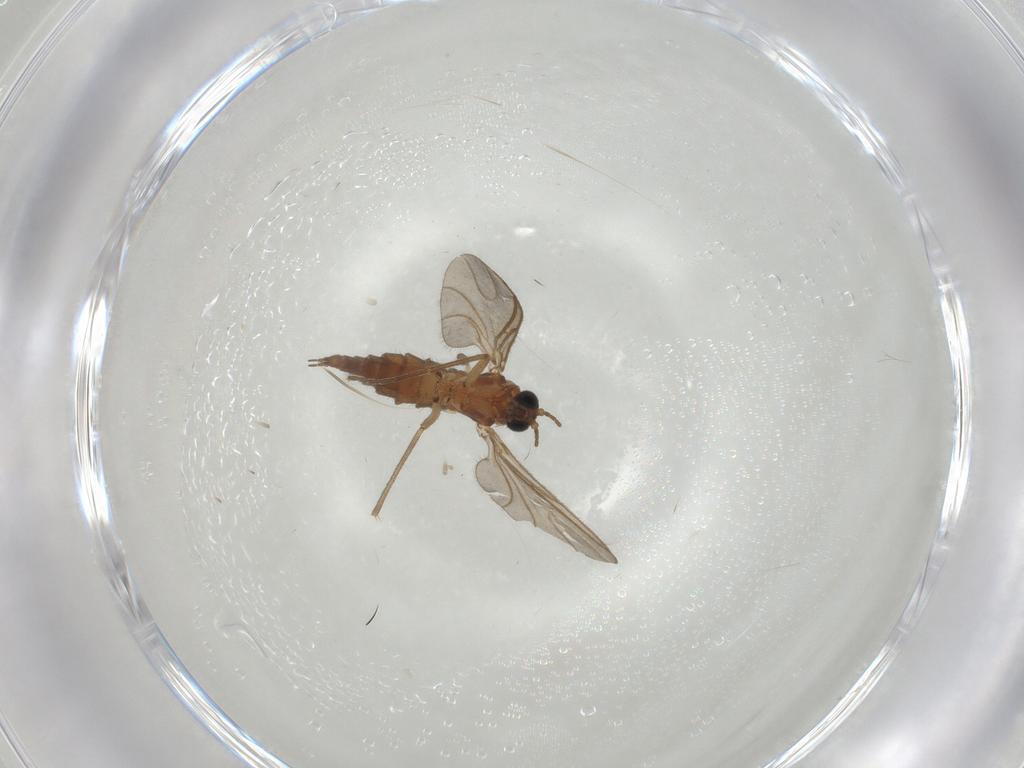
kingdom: Animalia
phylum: Arthropoda
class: Insecta
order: Diptera
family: Sciaridae
